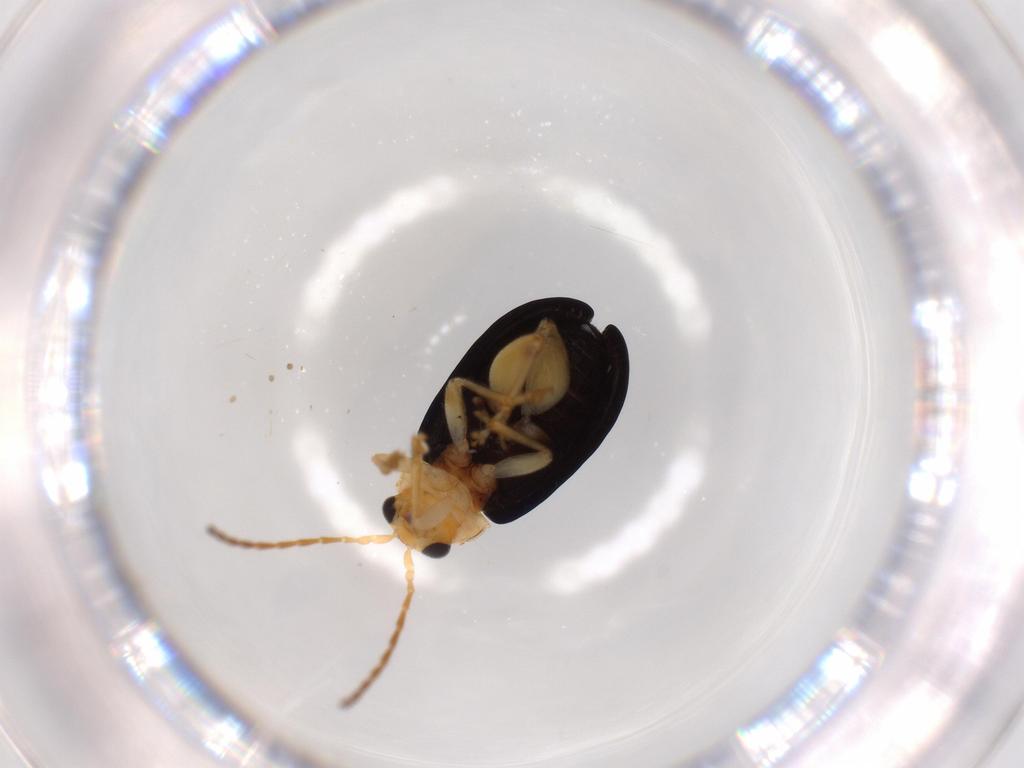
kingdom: Animalia
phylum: Arthropoda
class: Insecta
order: Coleoptera
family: Chrysomelidae
